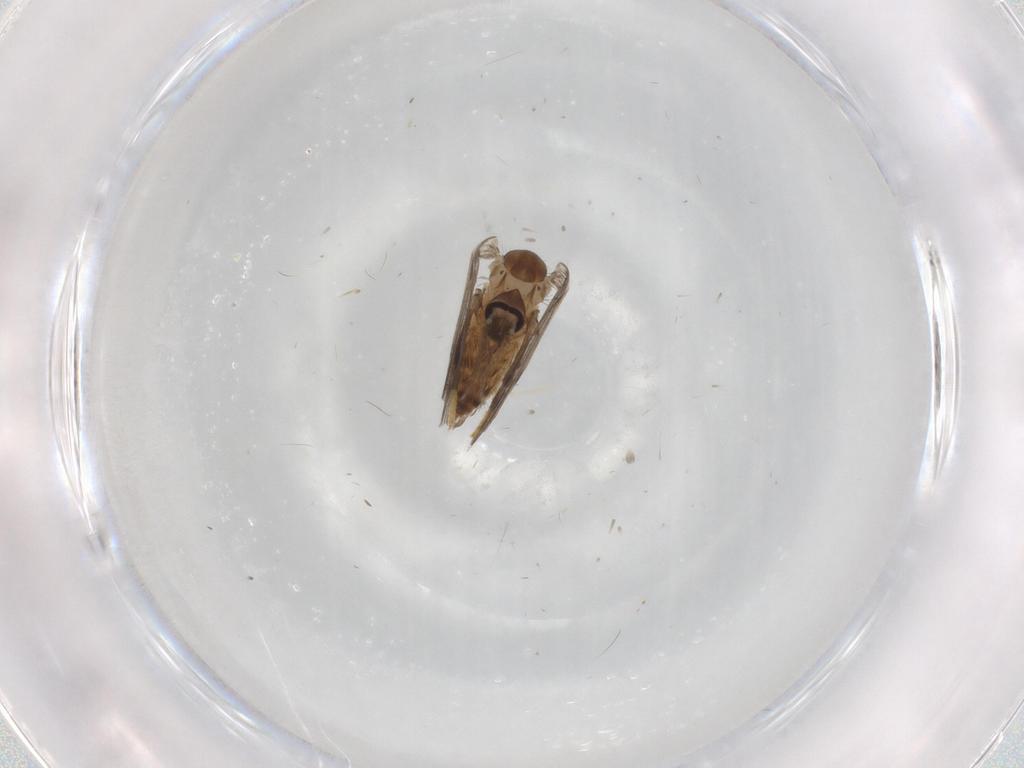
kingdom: Animalia
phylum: Arthropoda
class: Insecta
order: Diptera
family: Psychodidae
